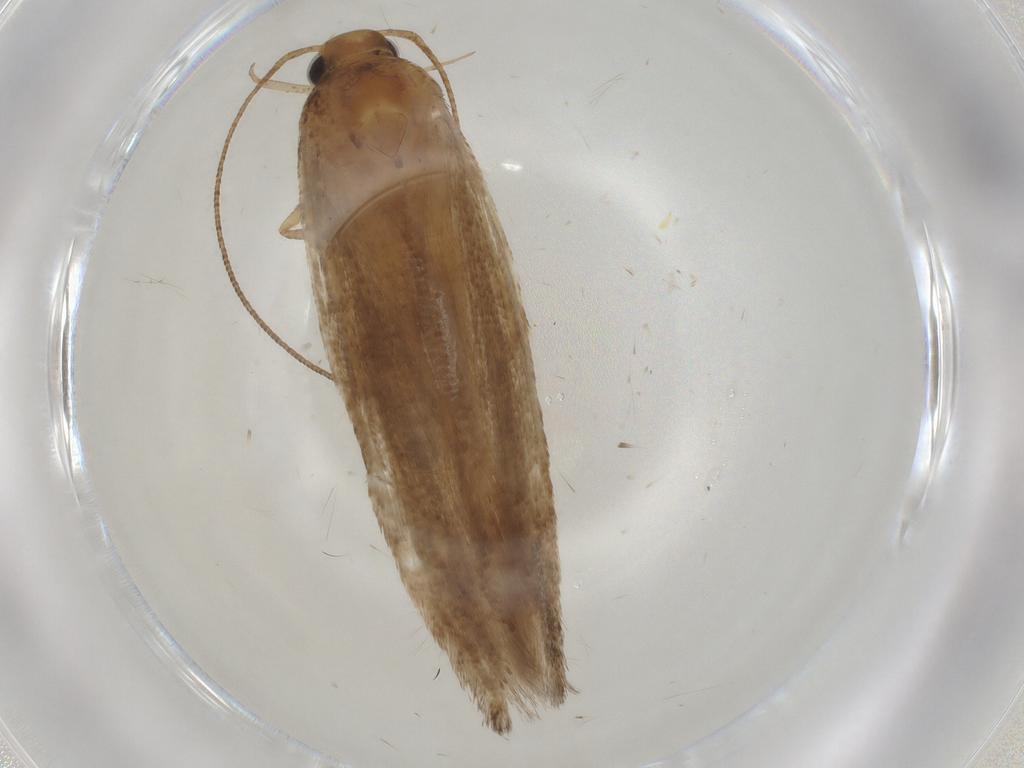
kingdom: Animalia
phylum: Arthropoda
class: Insecta
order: Lepidoptera
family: Gelechiidae
